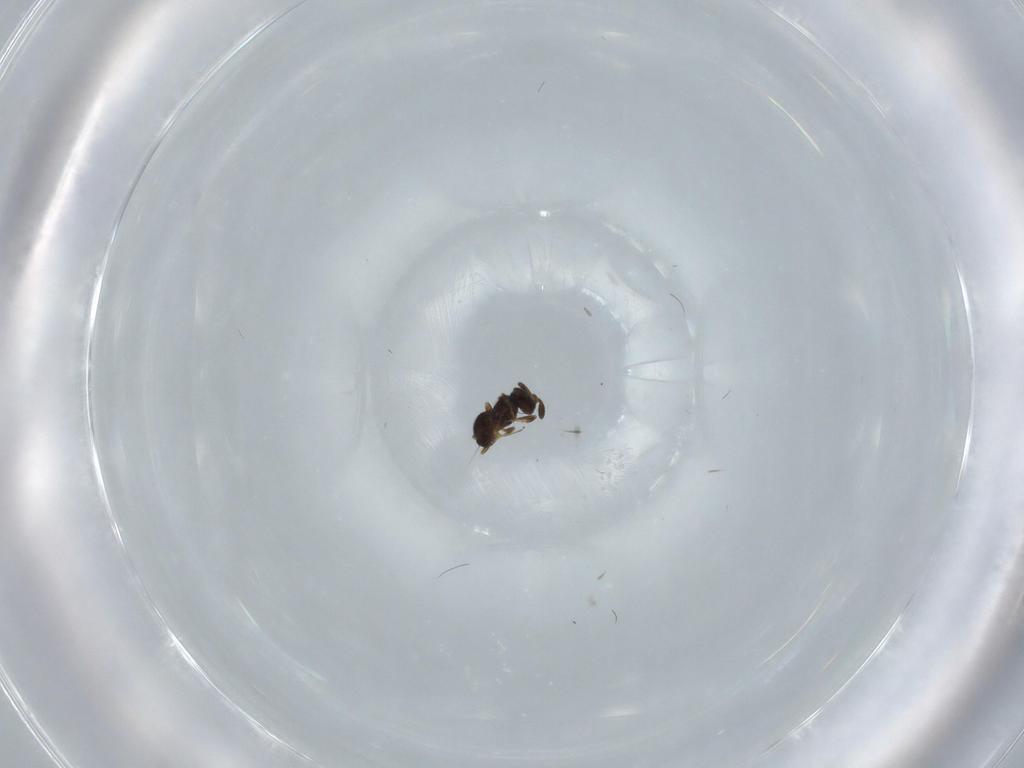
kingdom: Animalia
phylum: Arthropoda
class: Insecta
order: Hymenoptera
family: Scelionidae
